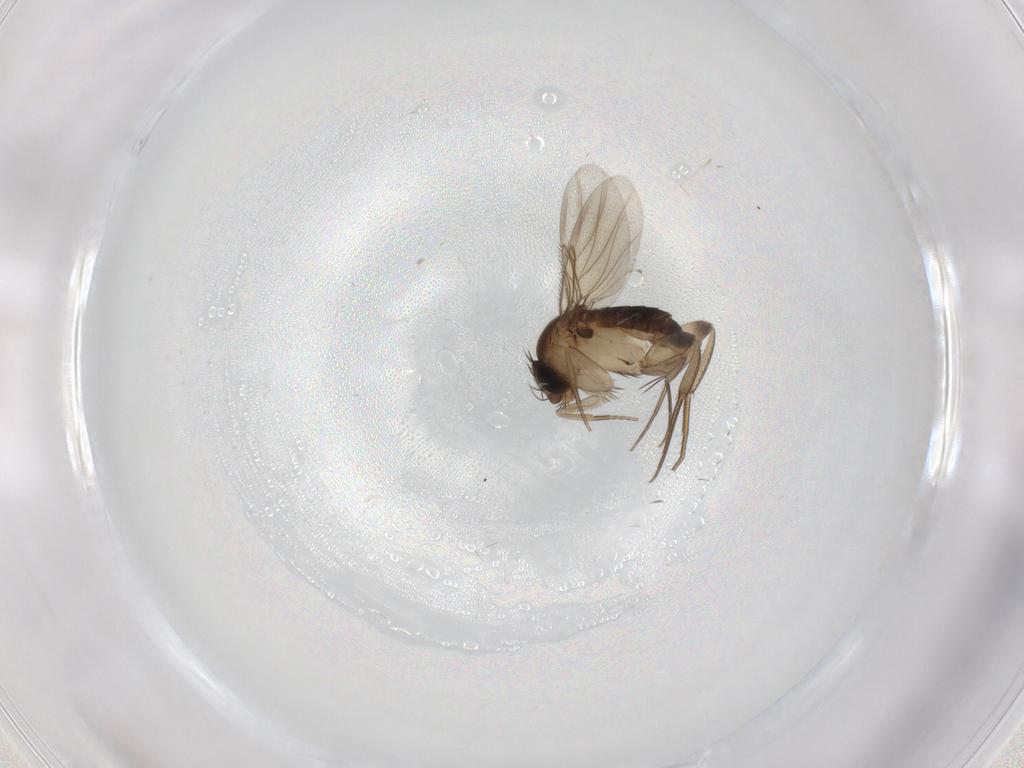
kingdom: Animalia
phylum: Arthropoda
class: Insecta
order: Diptera
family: Phoridae
